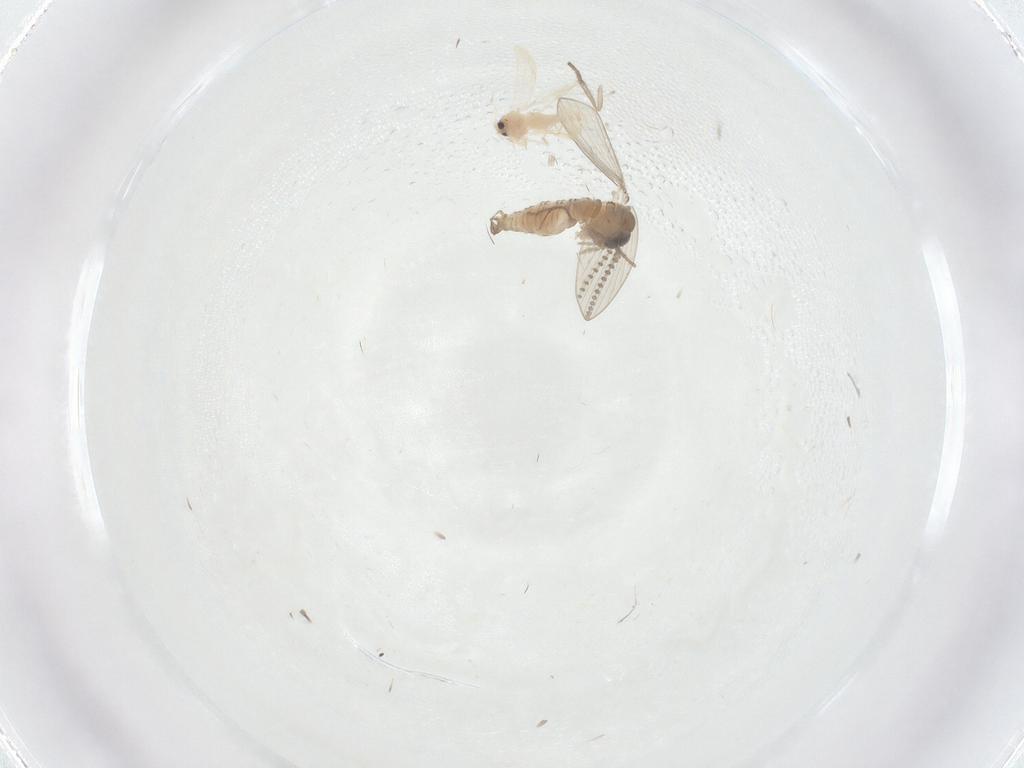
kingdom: Animalia
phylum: Arthropoda
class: Insecta
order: Diptera
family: Psychodidae
